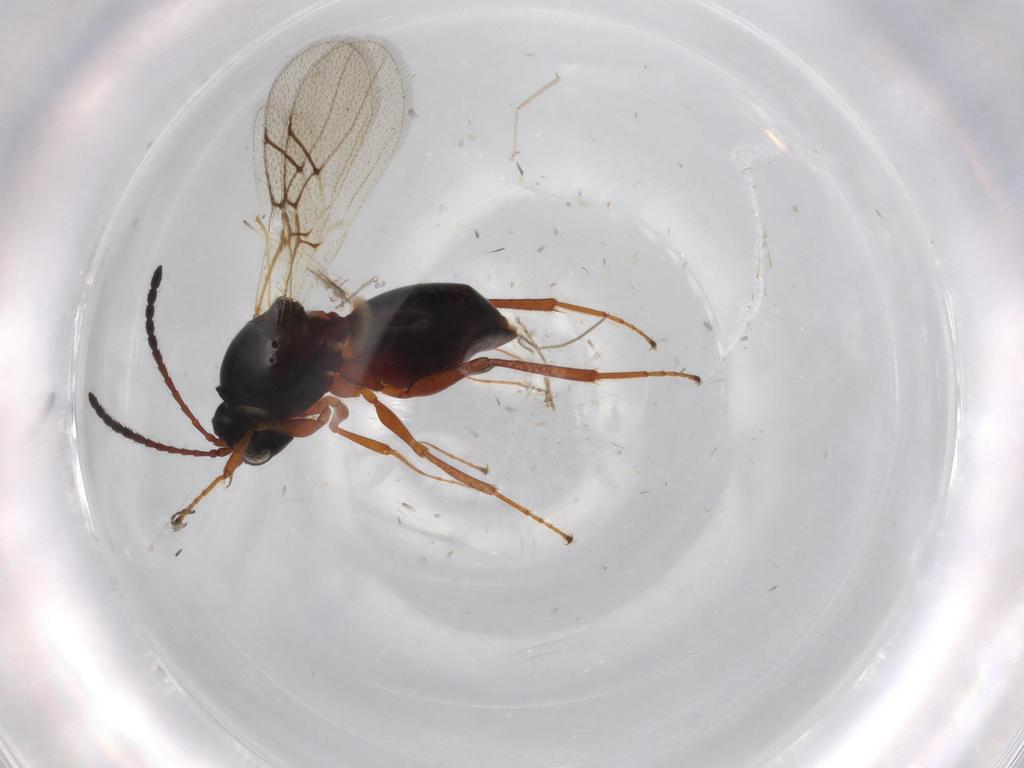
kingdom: Animalia
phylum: Arthropoda
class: Insecta
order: Hymenoptera
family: Figitidae
